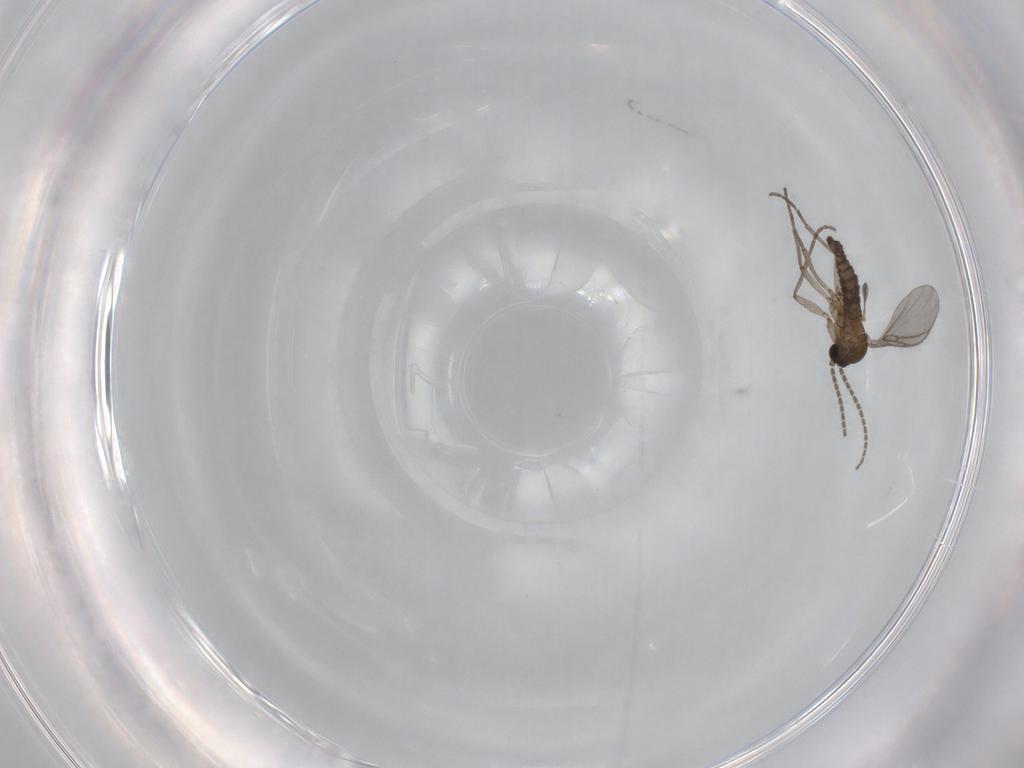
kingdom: Animalia
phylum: Arthropoda
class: Insecta
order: Diptera
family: Sciaridae
